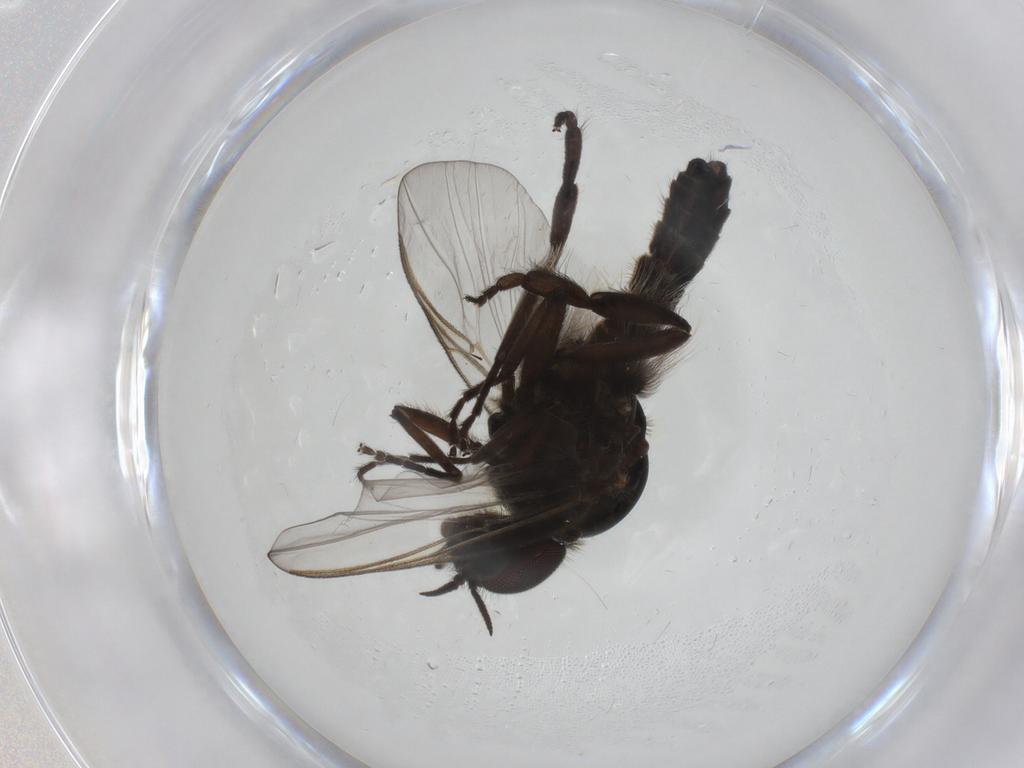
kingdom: Animalia
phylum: Arthropoda
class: Insecta
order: Diptera
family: Simuliidae
